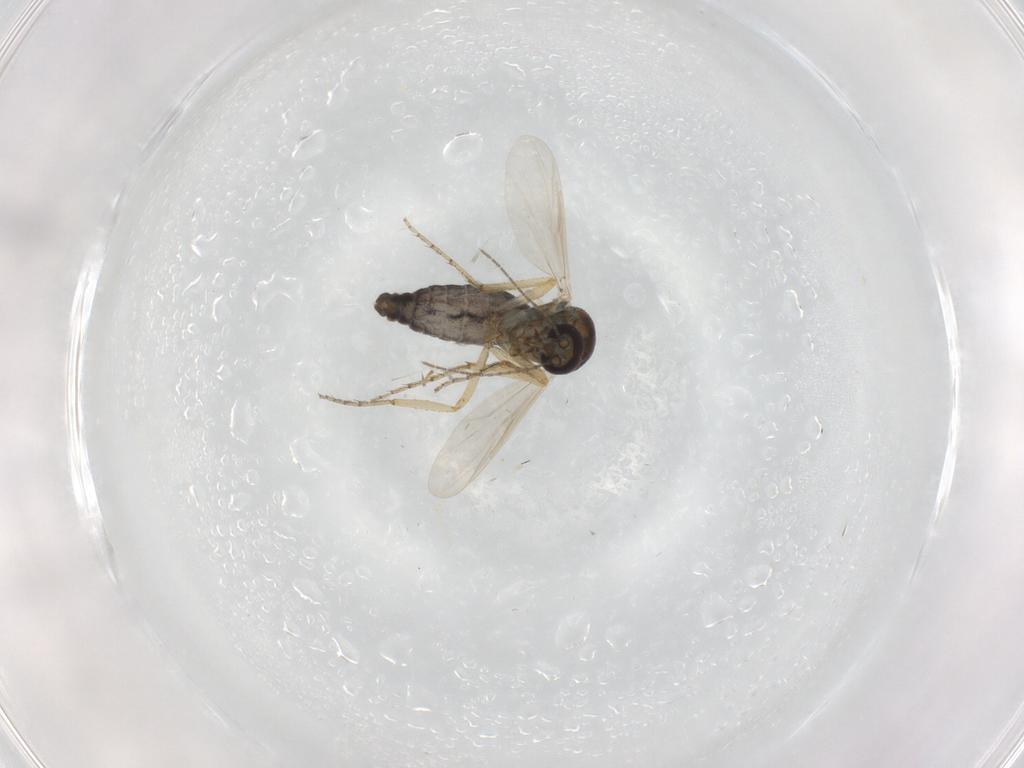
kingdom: Animalia
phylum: Arthropoda
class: Insecta
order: Diptera
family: Ceratopogonidae
